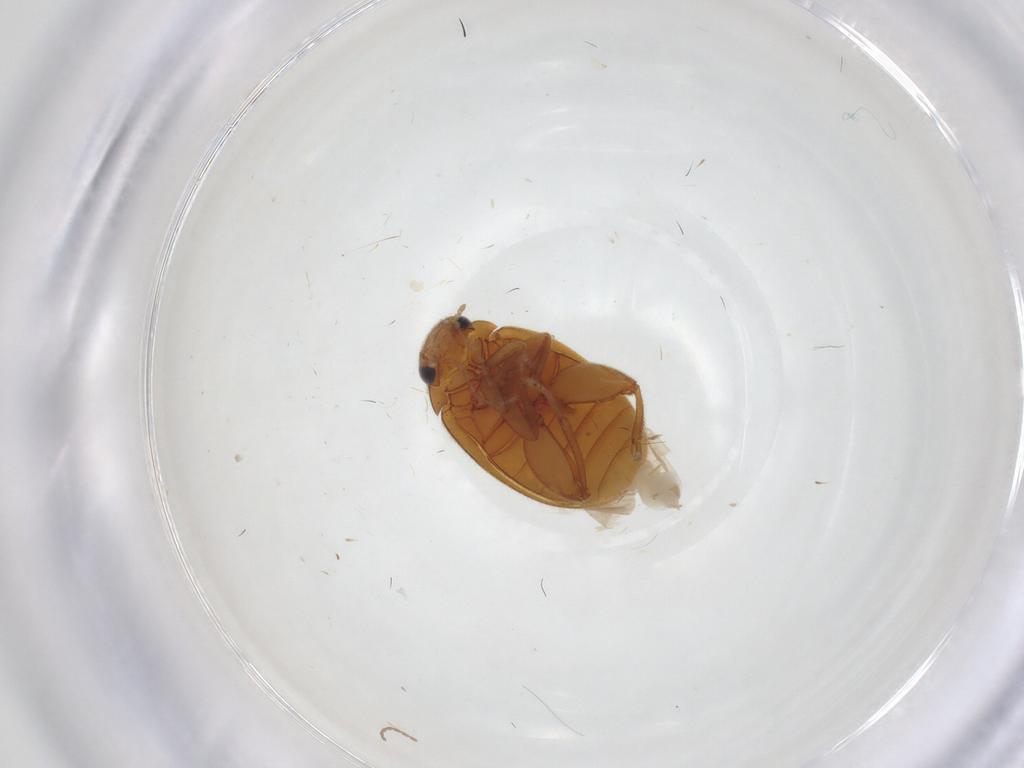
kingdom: Animalia
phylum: Arthropoda
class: Insecta
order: Coleoptera
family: Scirtidae
